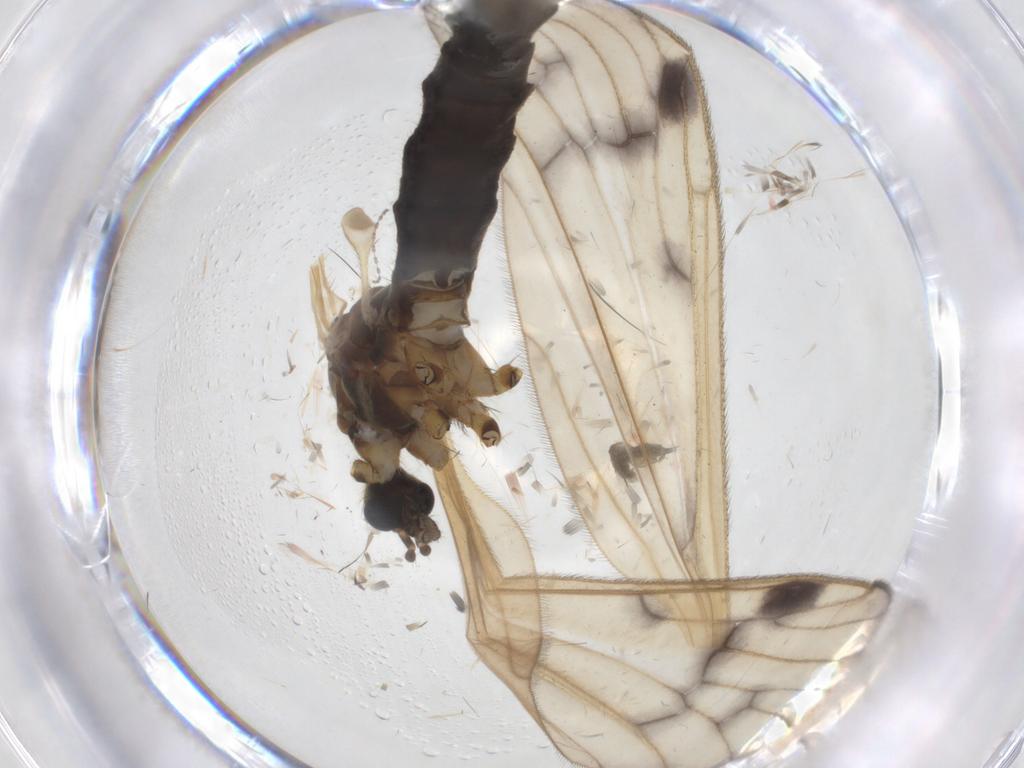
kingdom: Animalia
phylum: Arthropoda
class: Insecta
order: Diptera
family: Limoniidae
